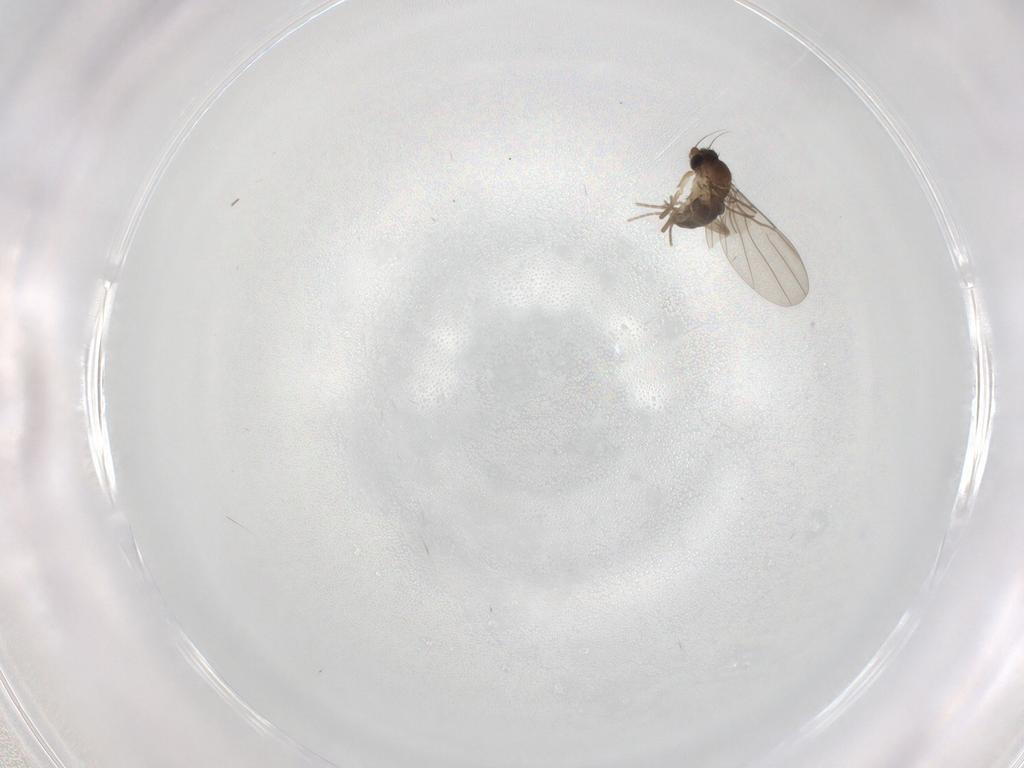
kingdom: Animalia
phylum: Arthropoda
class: Insecta
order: Diptera
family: Phoridae
